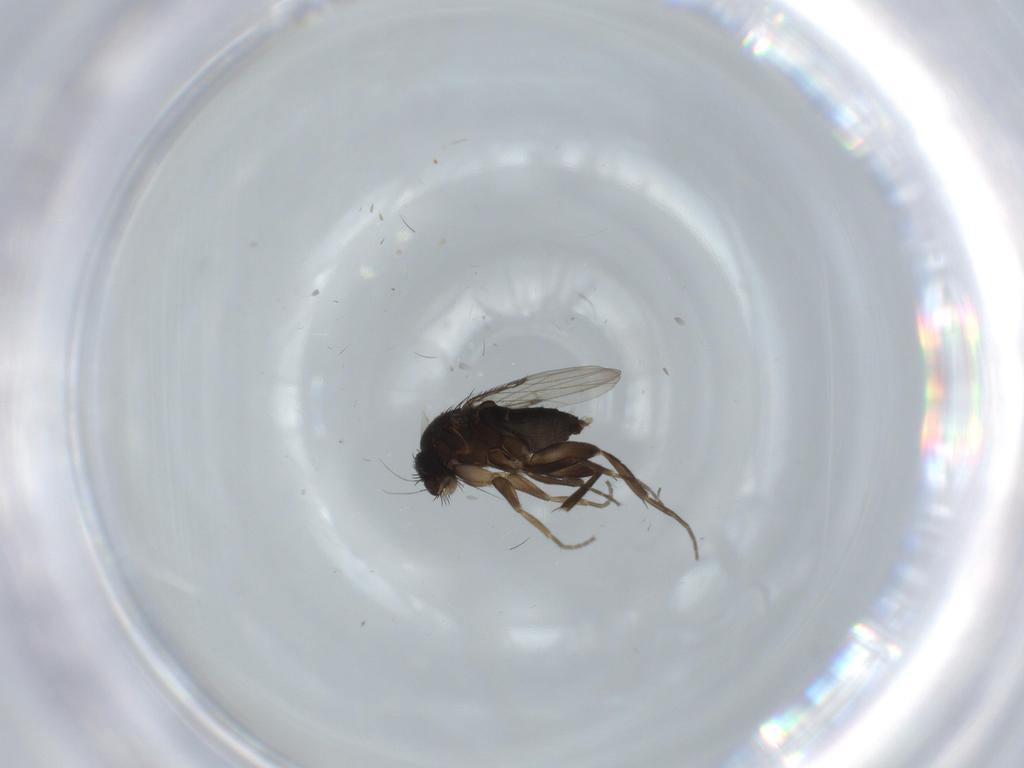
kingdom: Animalia
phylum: Arthropoda
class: Insecta
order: Diptera
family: Phoridae
